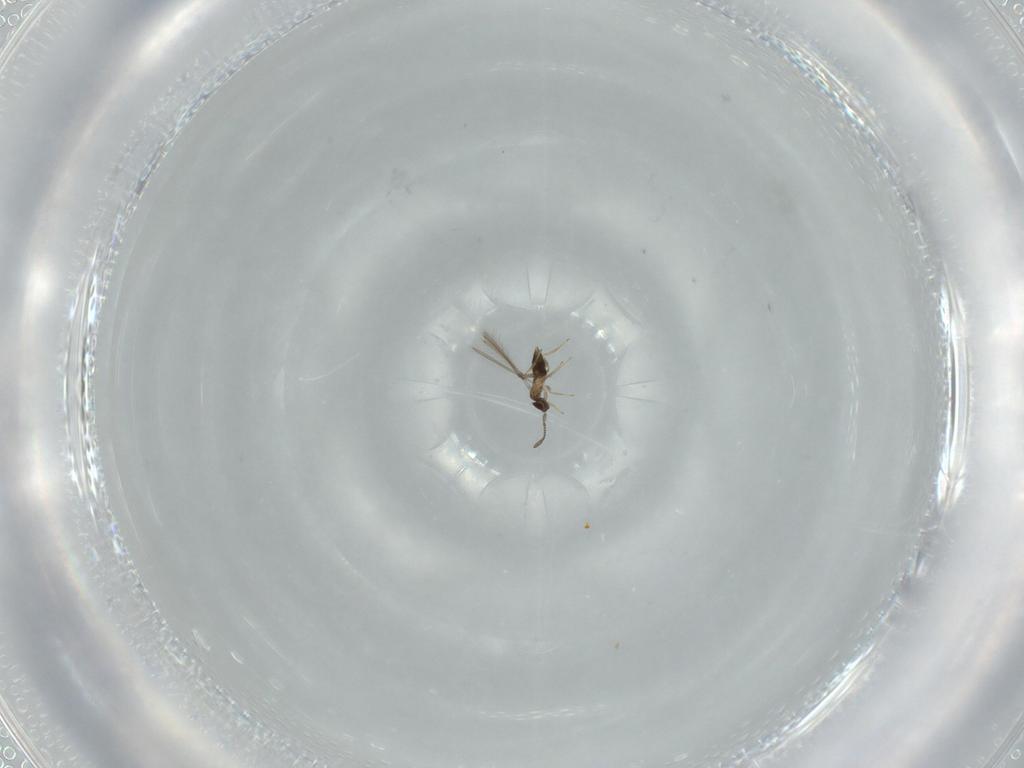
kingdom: Animalia
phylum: Arthropoda
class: Insecta
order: Hymenoptera
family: Mymaridae
